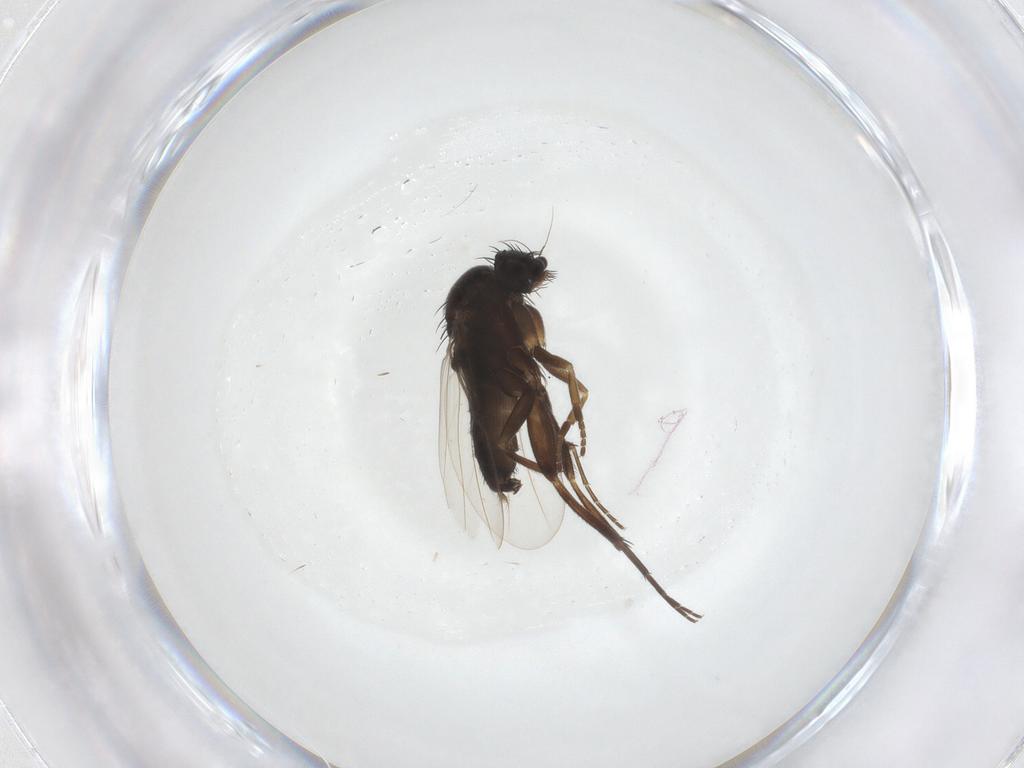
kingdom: Animalia
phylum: Arthropoda
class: Insecta
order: Diptera
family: Phoridae
